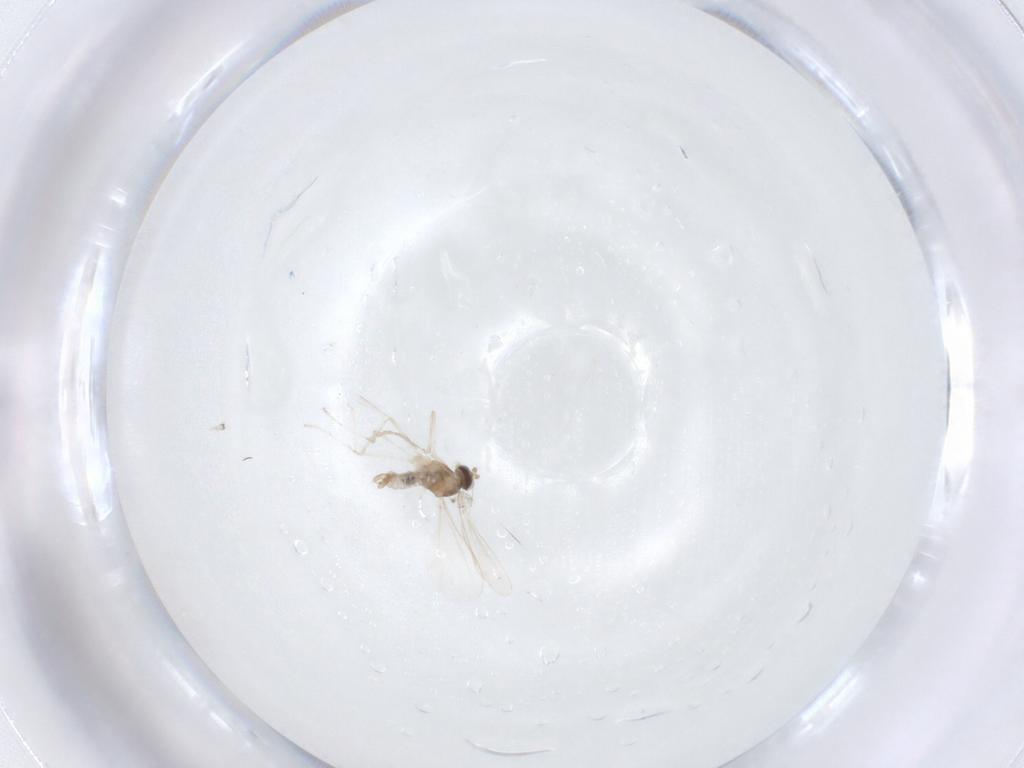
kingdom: Animalia
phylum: Arthropoda
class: Insecta
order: Diptera
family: Cecidomyiidae
